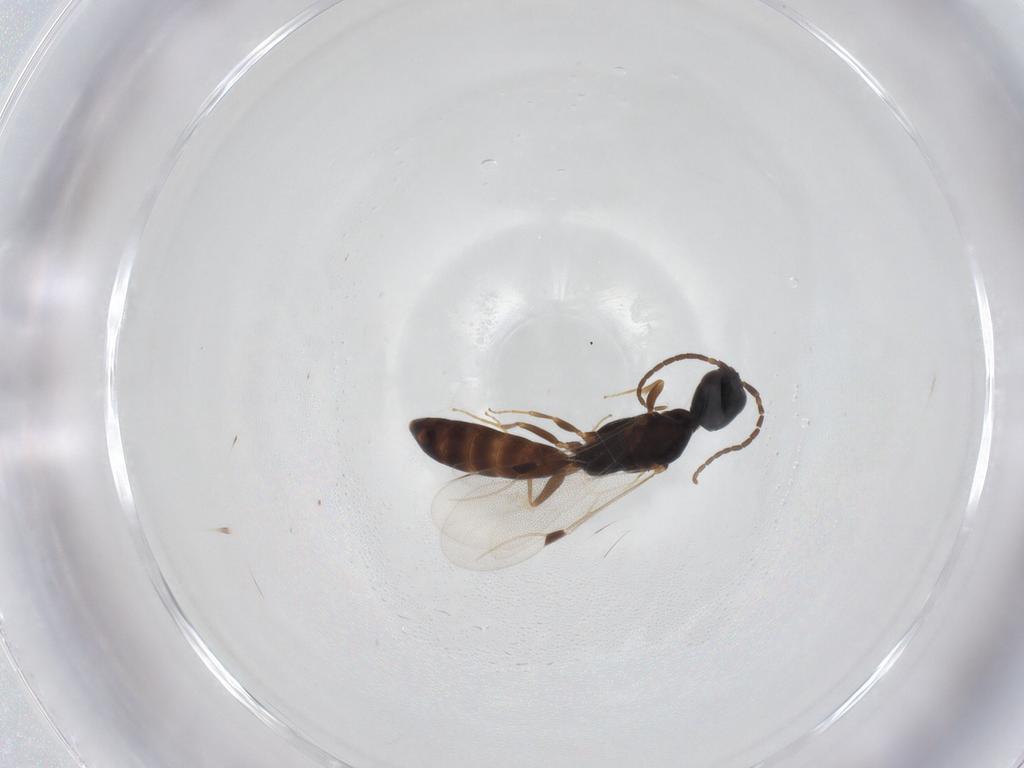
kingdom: Animalia
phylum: Arthropoda
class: Insecta
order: Hymenoptera
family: Bethylidae
